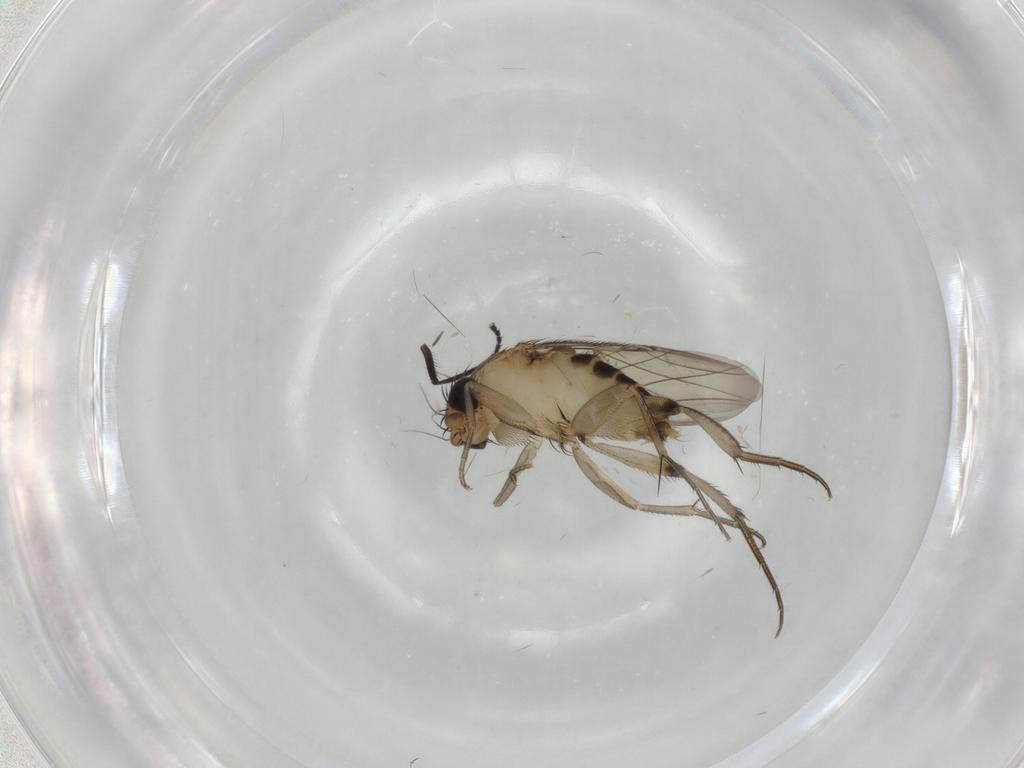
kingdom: Animalia
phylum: Arthropoda
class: Insecta
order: Diptera
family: Phoridae
